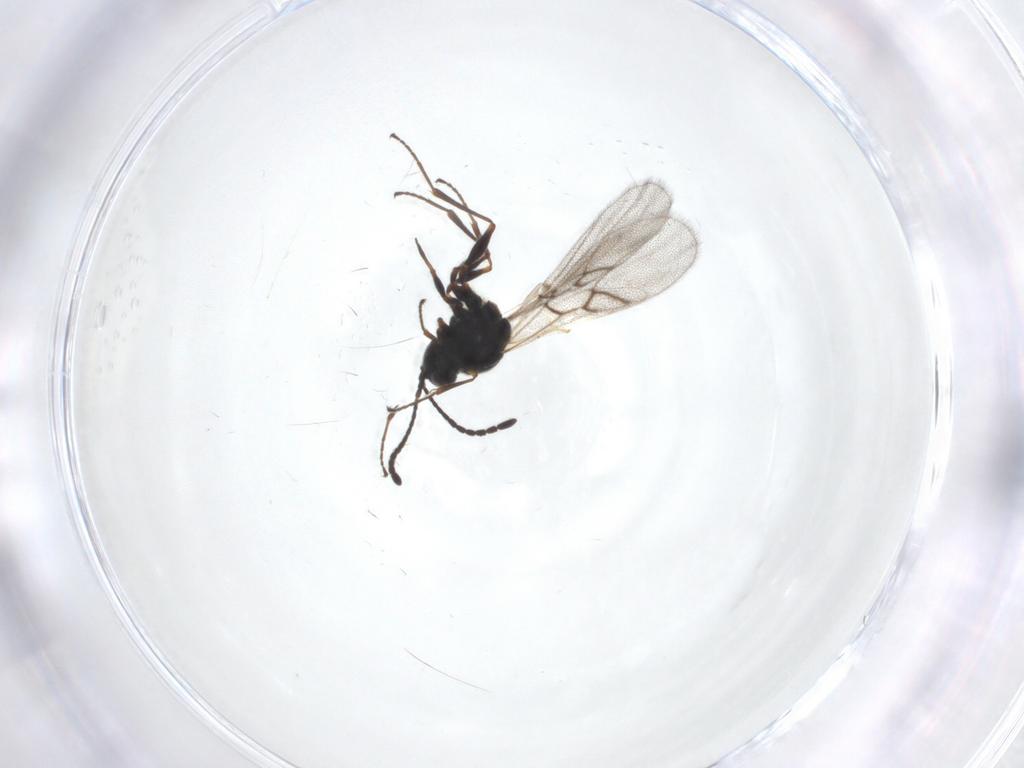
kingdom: Animalia
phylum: Arthropoda
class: Insecta
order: Hymenoptera
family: Figitidae
